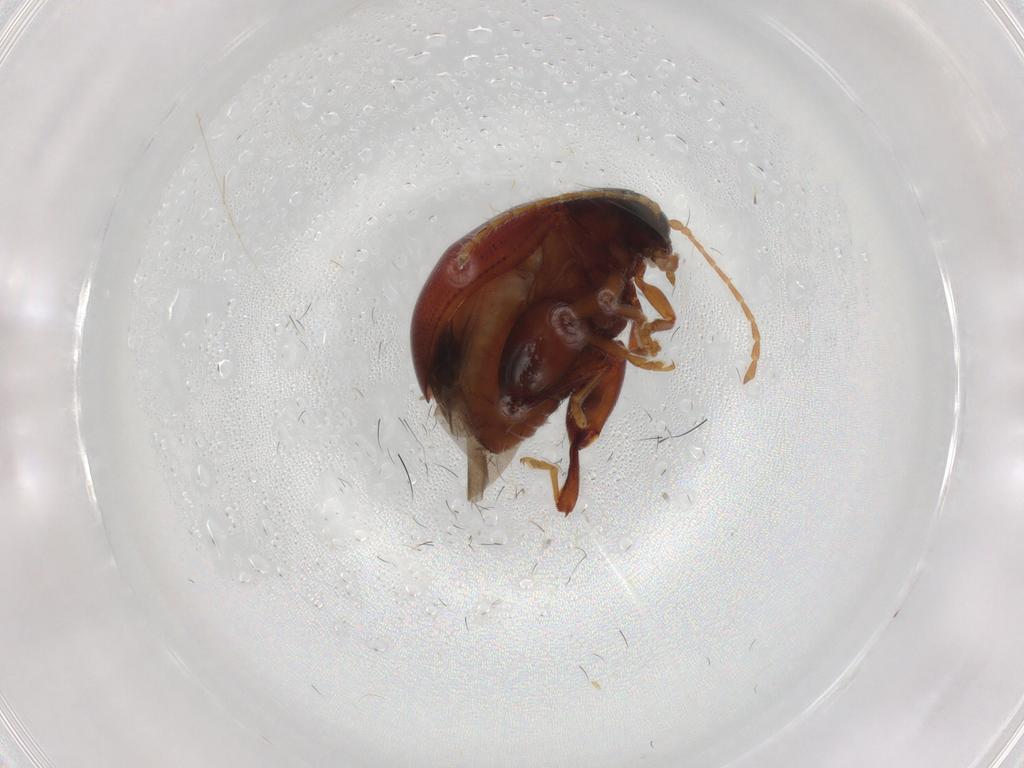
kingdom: Animalia
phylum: Arthropoda
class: Insecta
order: Coleoptera
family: Chrysomelidae
